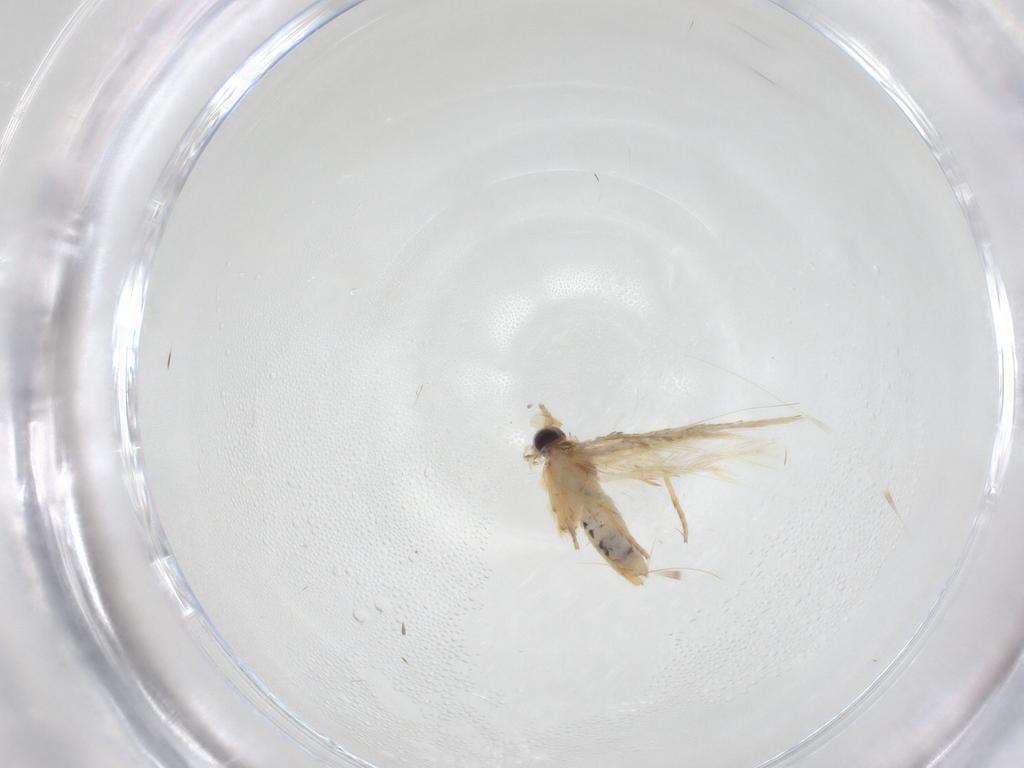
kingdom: Animalia
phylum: Arthropoda
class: Insecta
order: Lepidoptera
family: Nepticulidae
